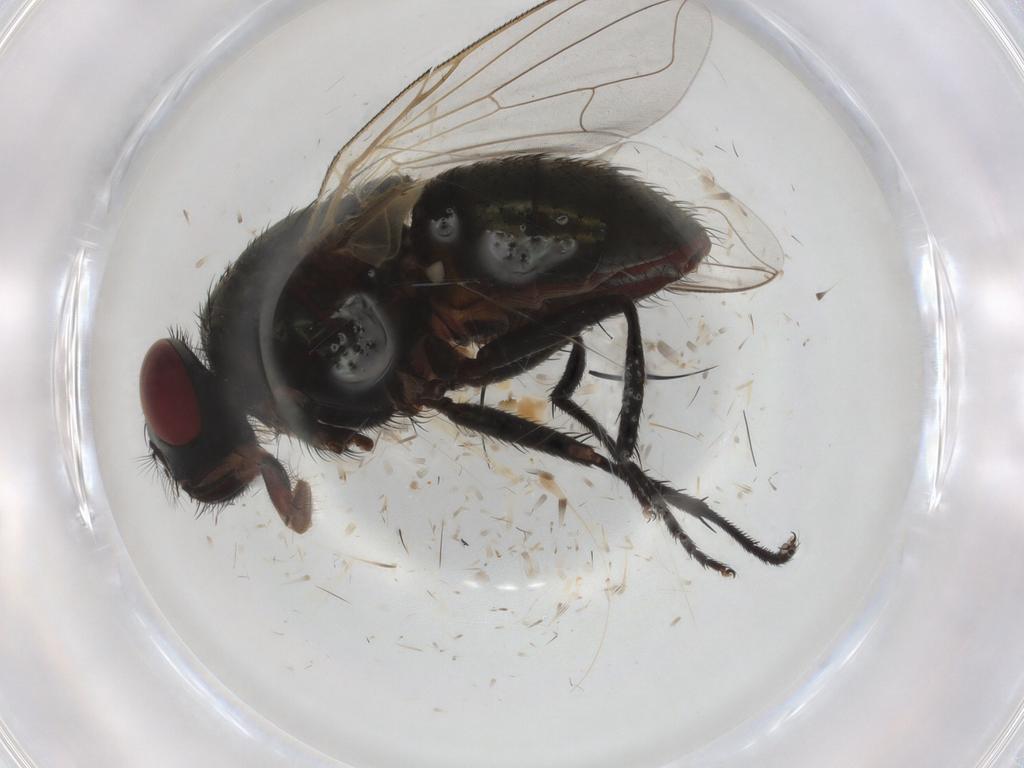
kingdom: Animalia
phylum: Arthropoda
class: Insecta
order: Diptera
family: Cecidomyiidae
